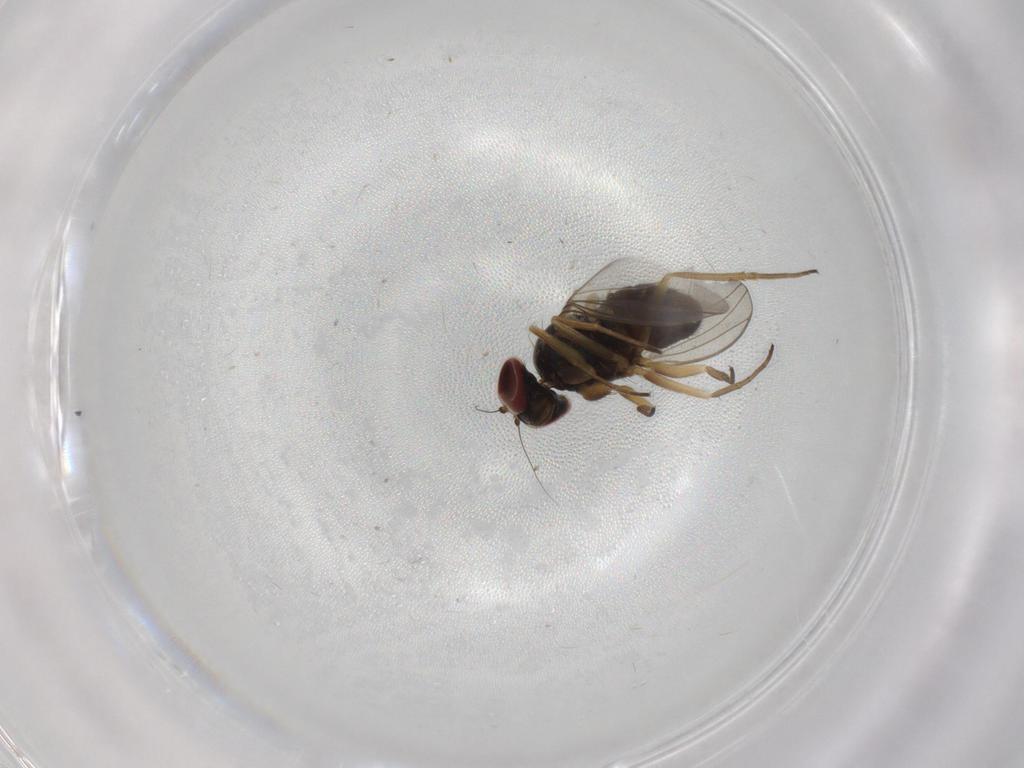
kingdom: Animalia
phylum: Arthropoda
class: Insecta
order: Diptera
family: Dolichopodidae
